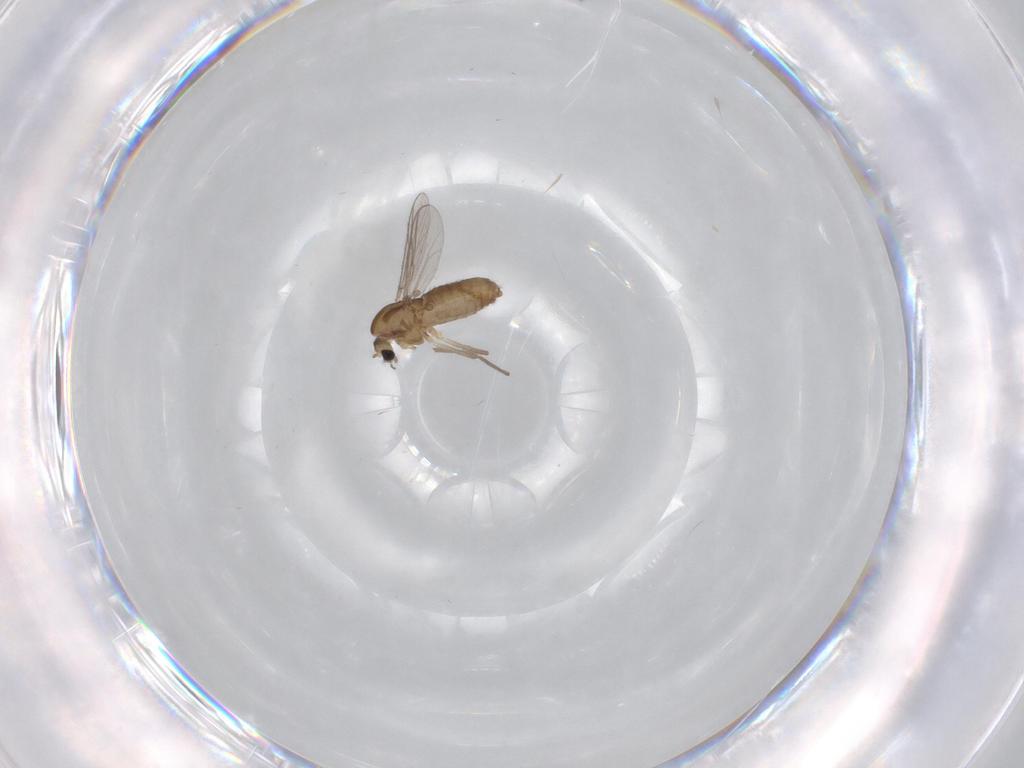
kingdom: Animalia
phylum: Arthropoda
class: Insecta
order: Diptera
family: Chironomidae
